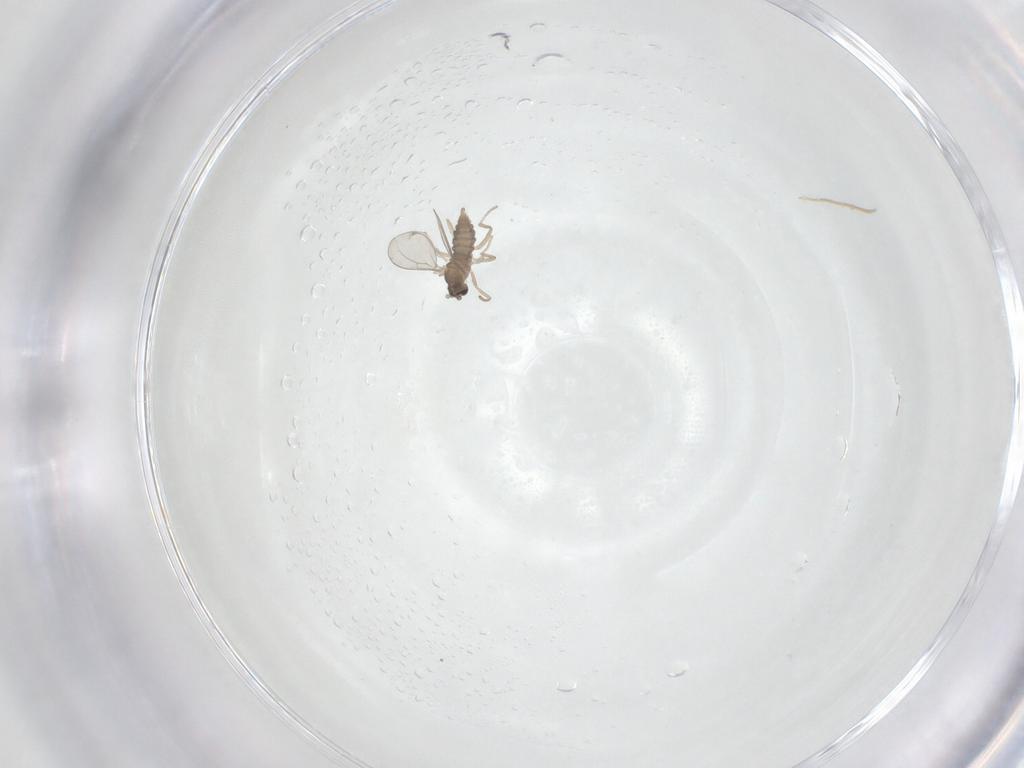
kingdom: Animalia
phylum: Arthropoda
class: Insecta
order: Diptera
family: Cecidomyiidae
